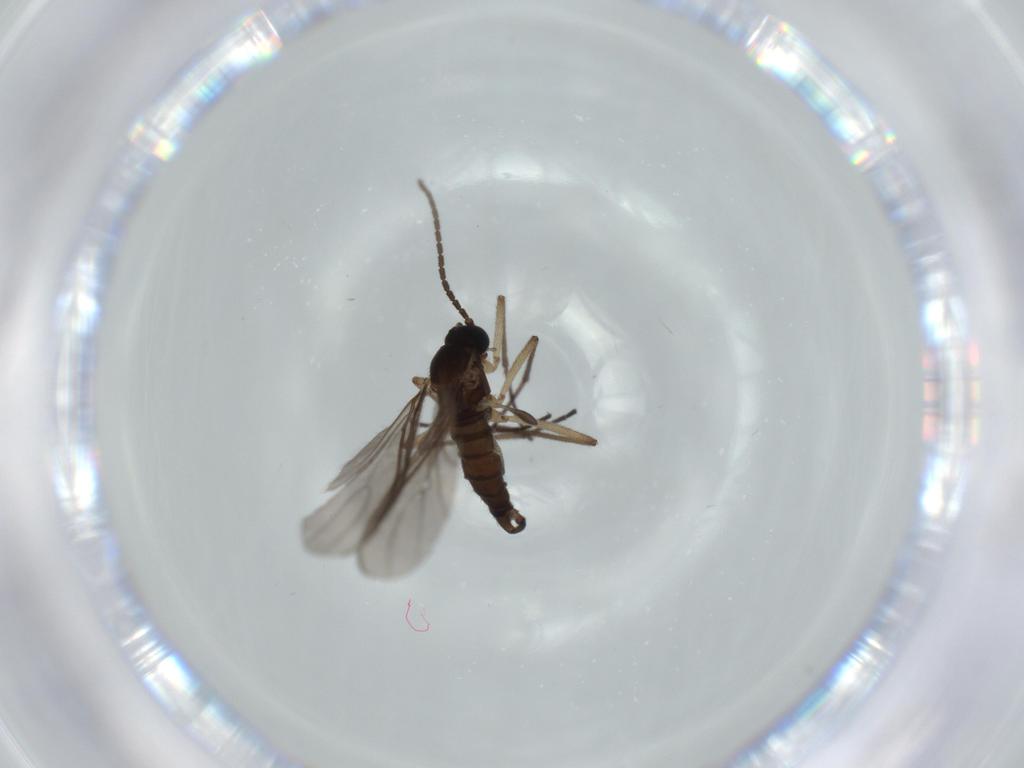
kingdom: Animalia
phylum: Arthropoda
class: Insecta
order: Diptera
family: Sciaridae
